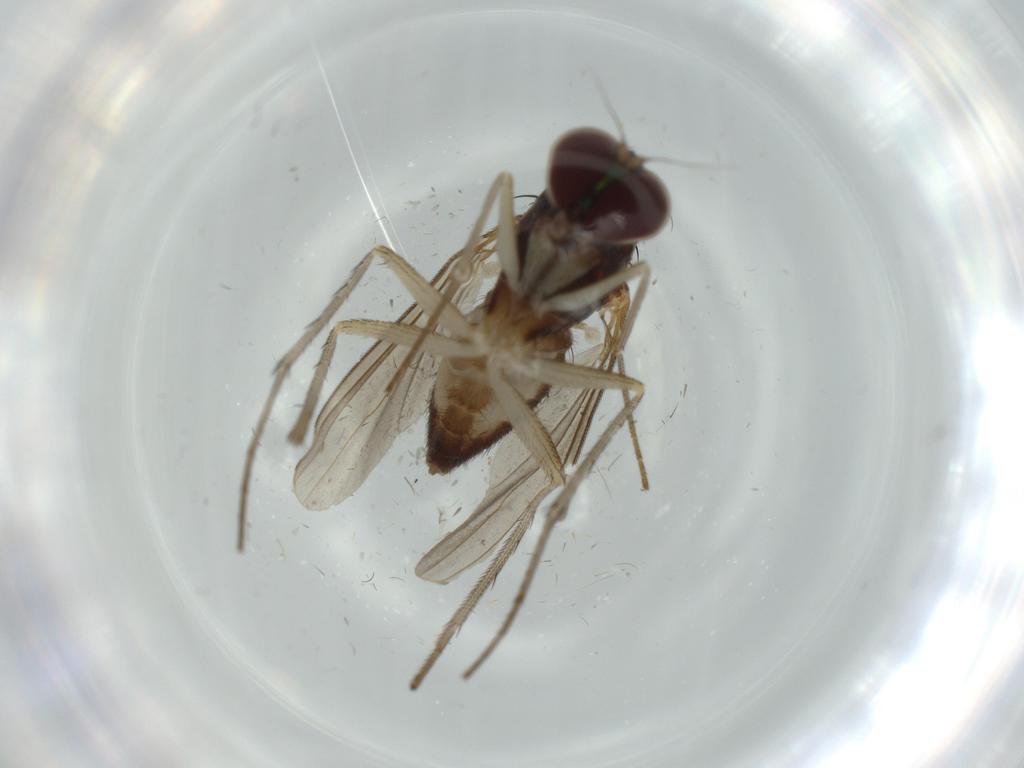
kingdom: Animalia
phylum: Arthropoda
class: Insecta
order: Diptera
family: Dolichopodidae
